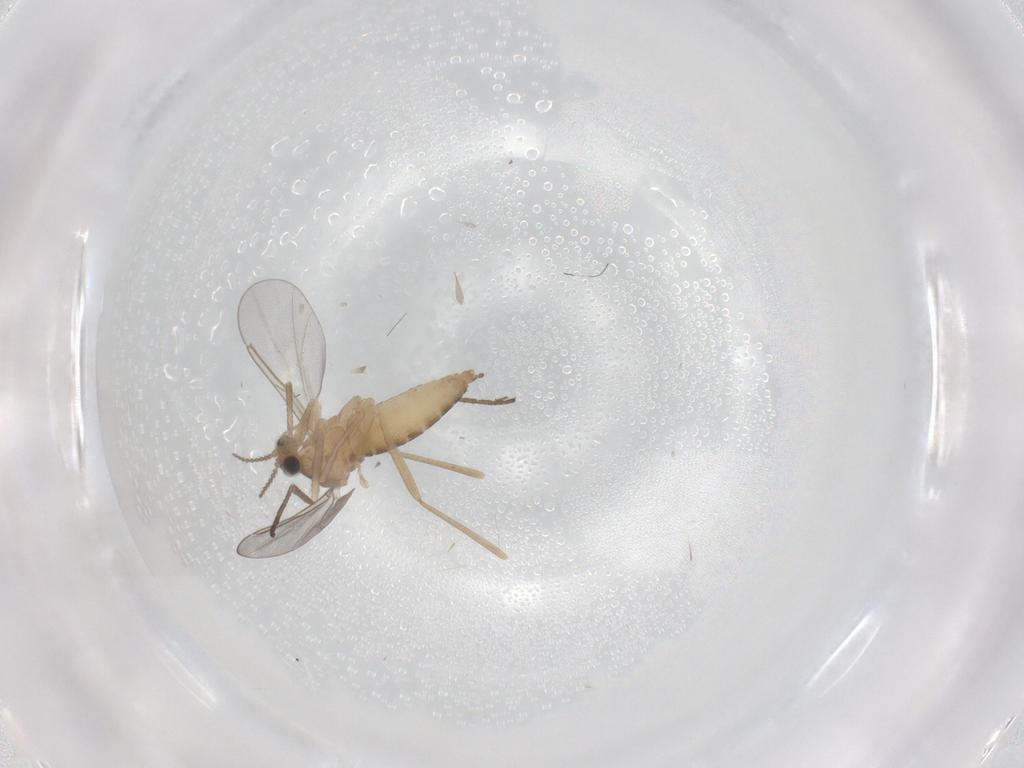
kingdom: Animalia
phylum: Arthropoda
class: Insecta
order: Diptera
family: Cecidomyiidae
